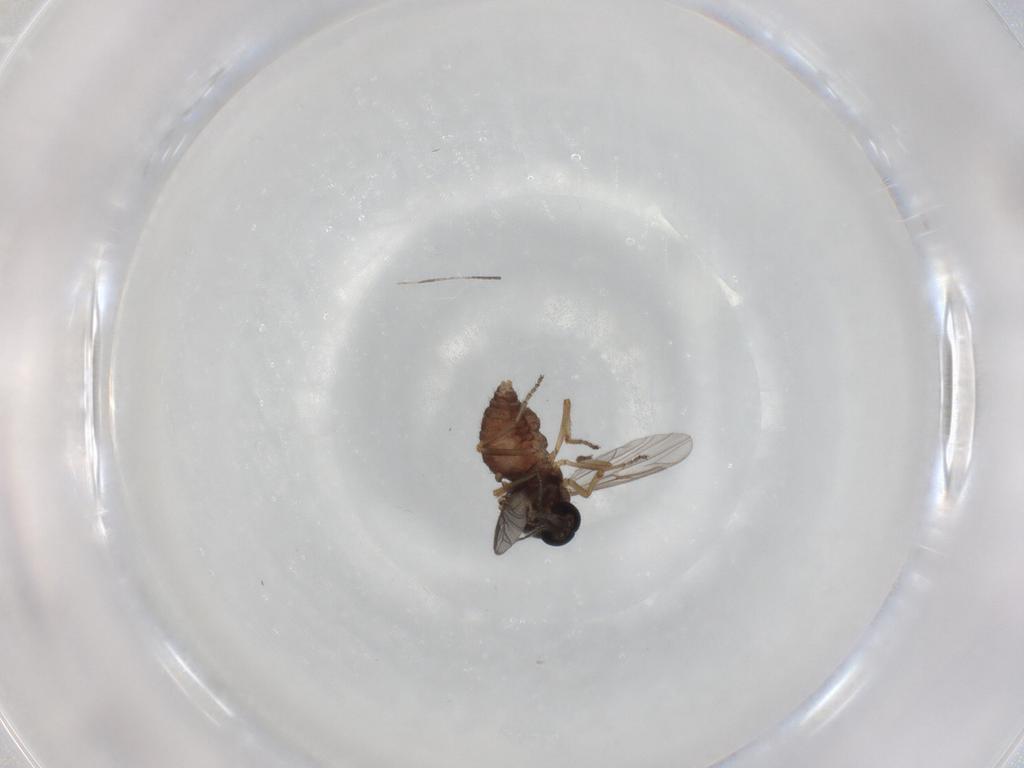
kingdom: Animalia
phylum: Arthropoda
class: Insecta
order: Diptera
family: Ceratopogonidae
